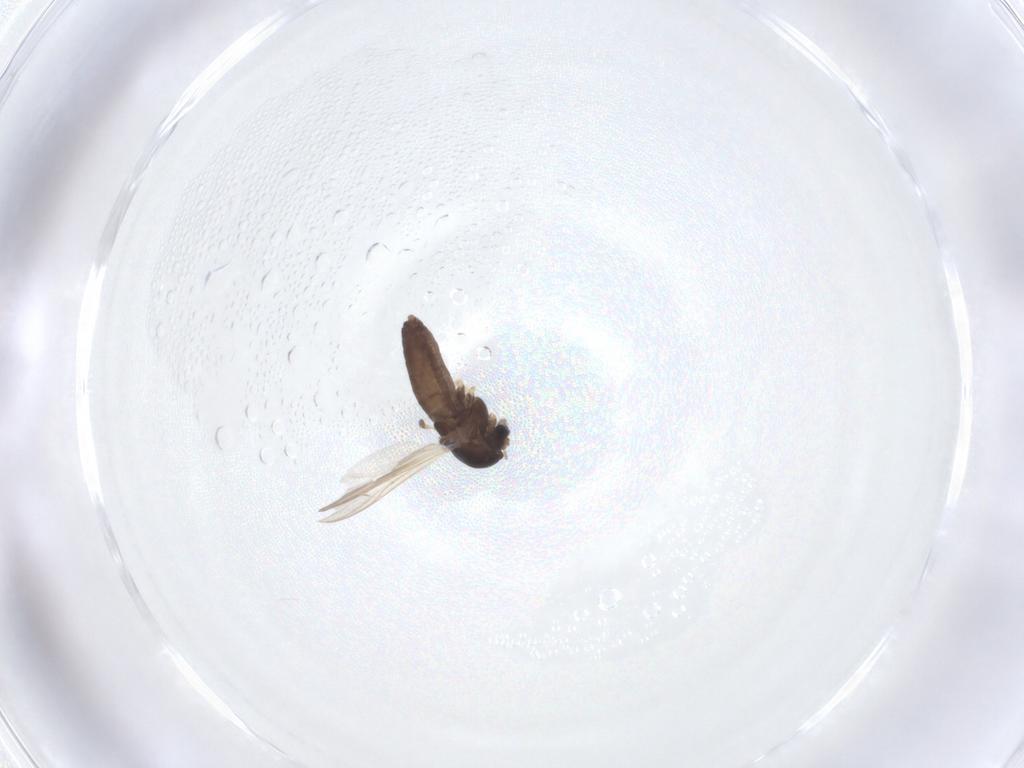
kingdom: Animalia
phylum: Arthropoda
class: Insecta
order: Diptera
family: Chironomidae
